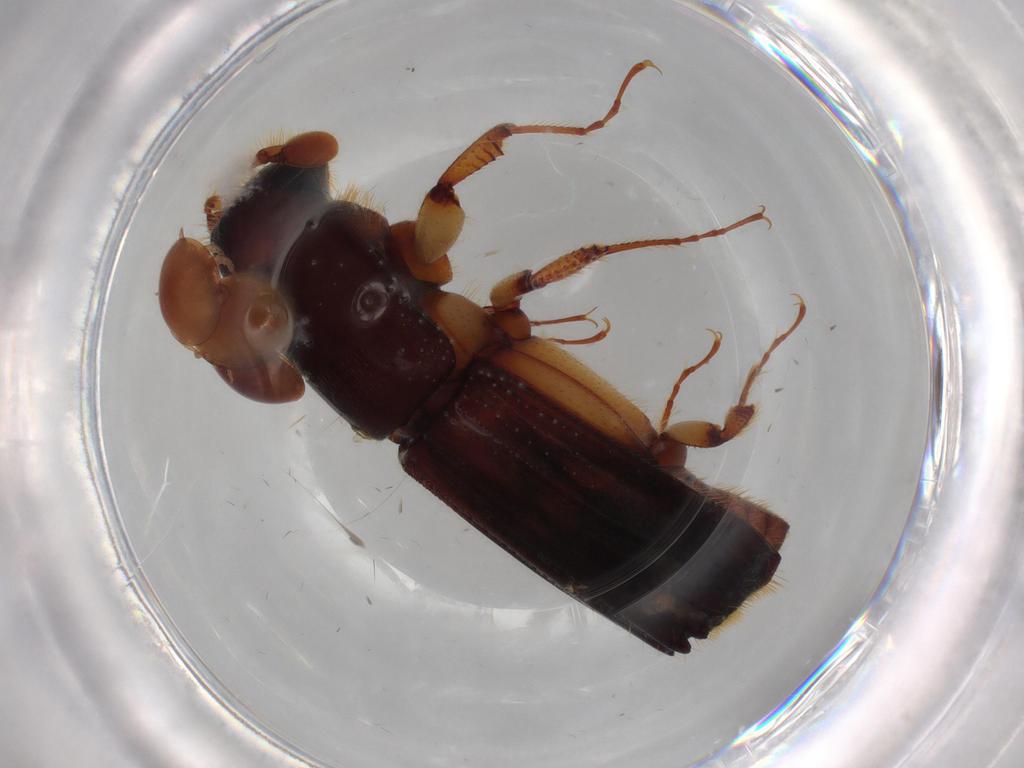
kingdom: Animalia
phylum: Arthropoda
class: Insecta
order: Coleoptera
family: Curculionidae
